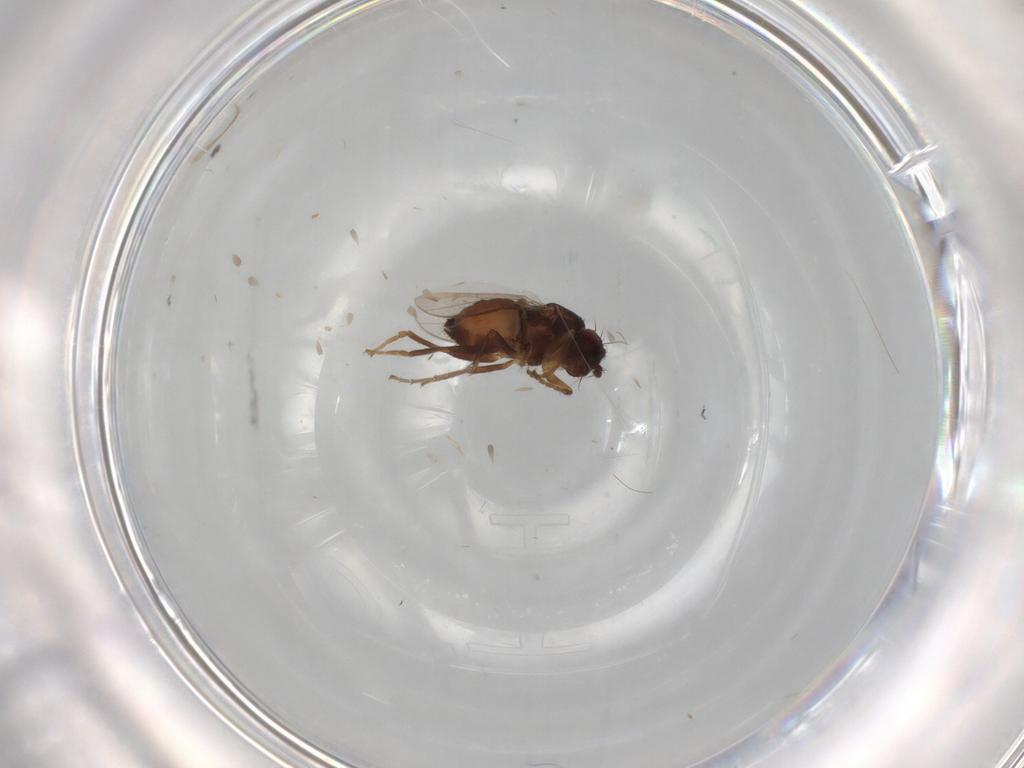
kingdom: Animalia
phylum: Arthropoda
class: Insecta
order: Diptera
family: Sphaeroceridae
